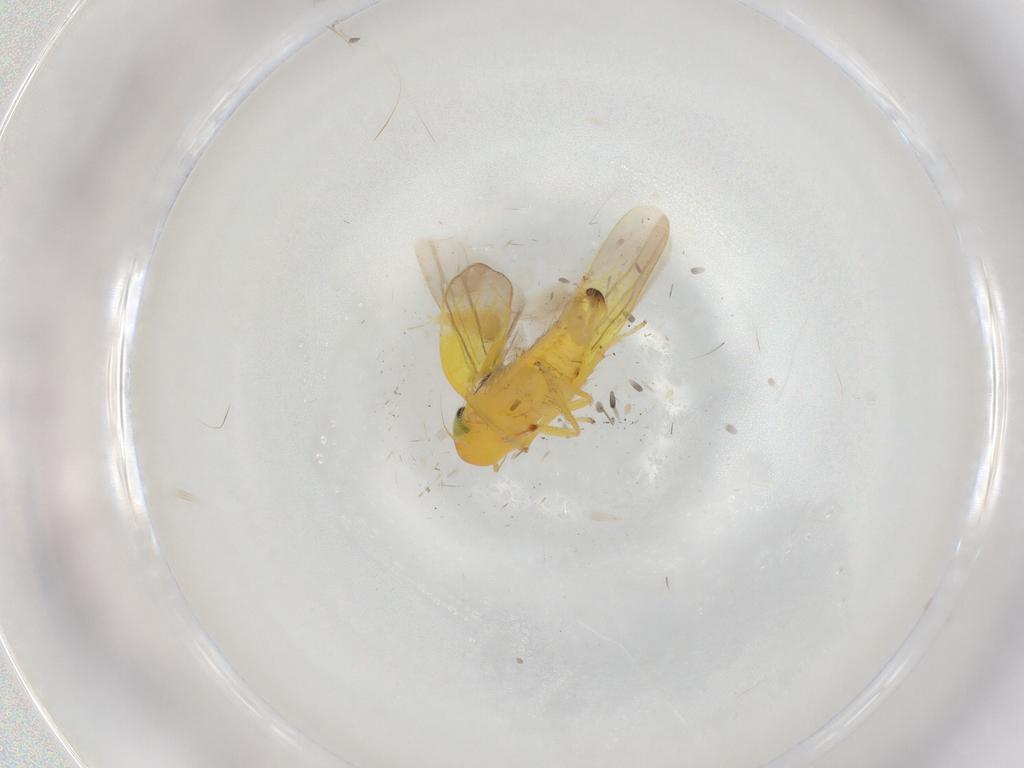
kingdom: Animalia
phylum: Arthropoda
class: Insecta
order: Hemiptera
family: Aleyrodidae
